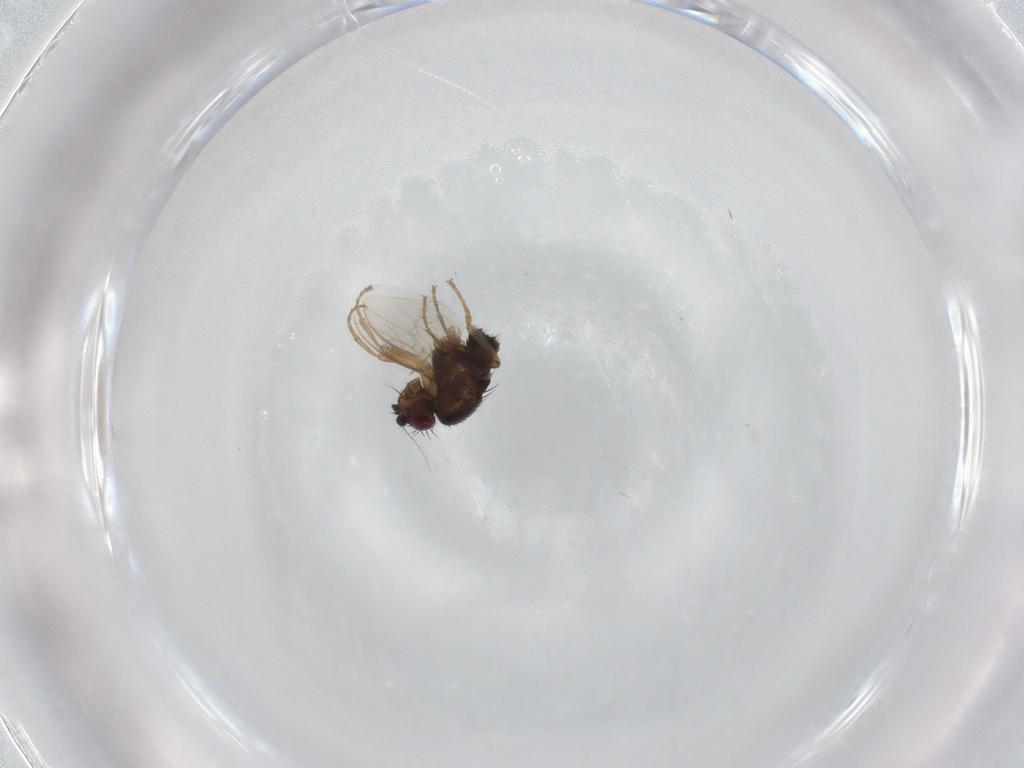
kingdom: Animalia
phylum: Arthropoda
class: Insecta
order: Diptera
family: Sphaeroceridae
